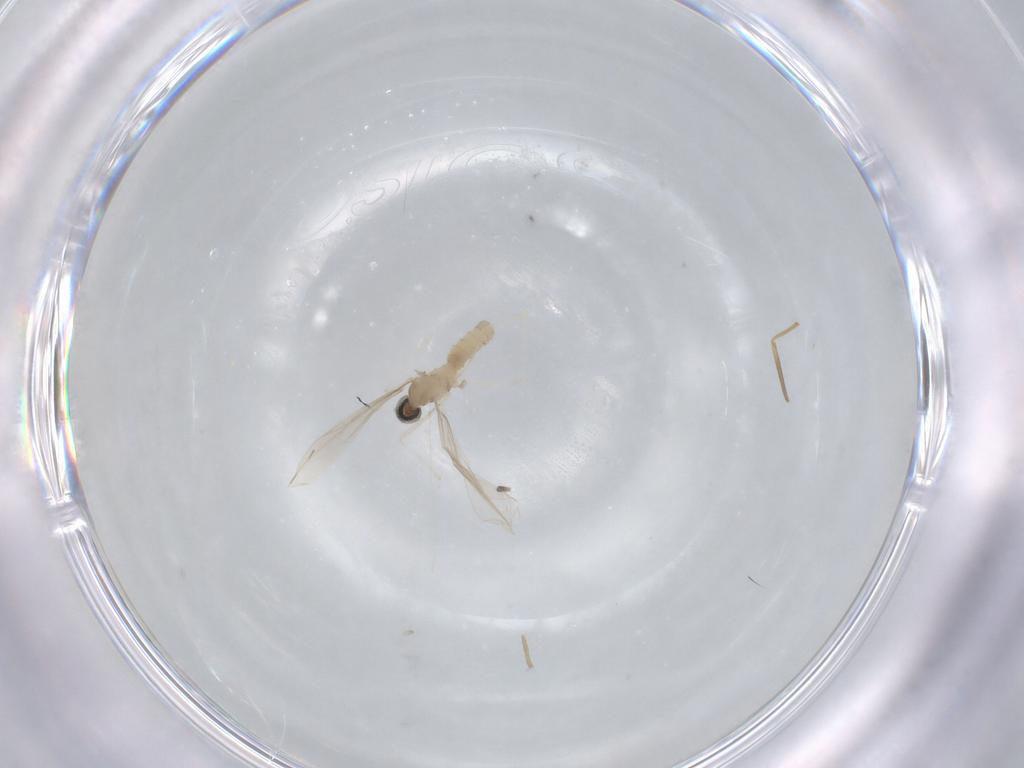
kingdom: Animalia
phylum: Arthropoda
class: Insecta
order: Diptera
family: Cecidomyiidae
